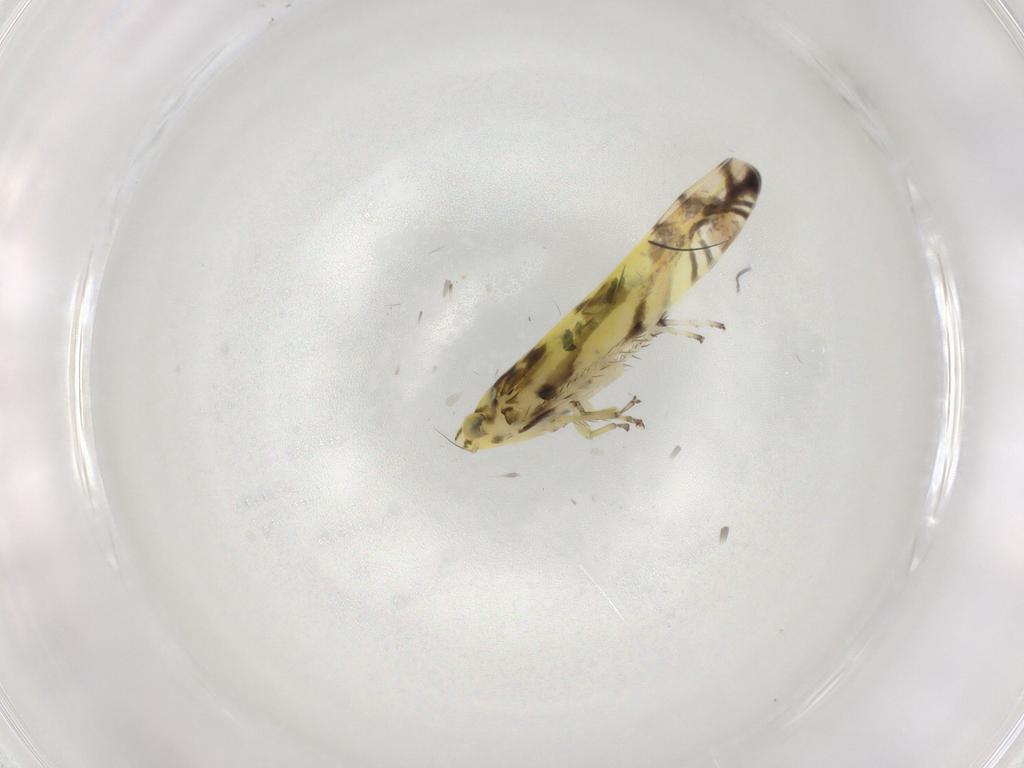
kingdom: Animalia
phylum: Arthropoda
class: Insecta
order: Hemiptera
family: Cicadellidae
